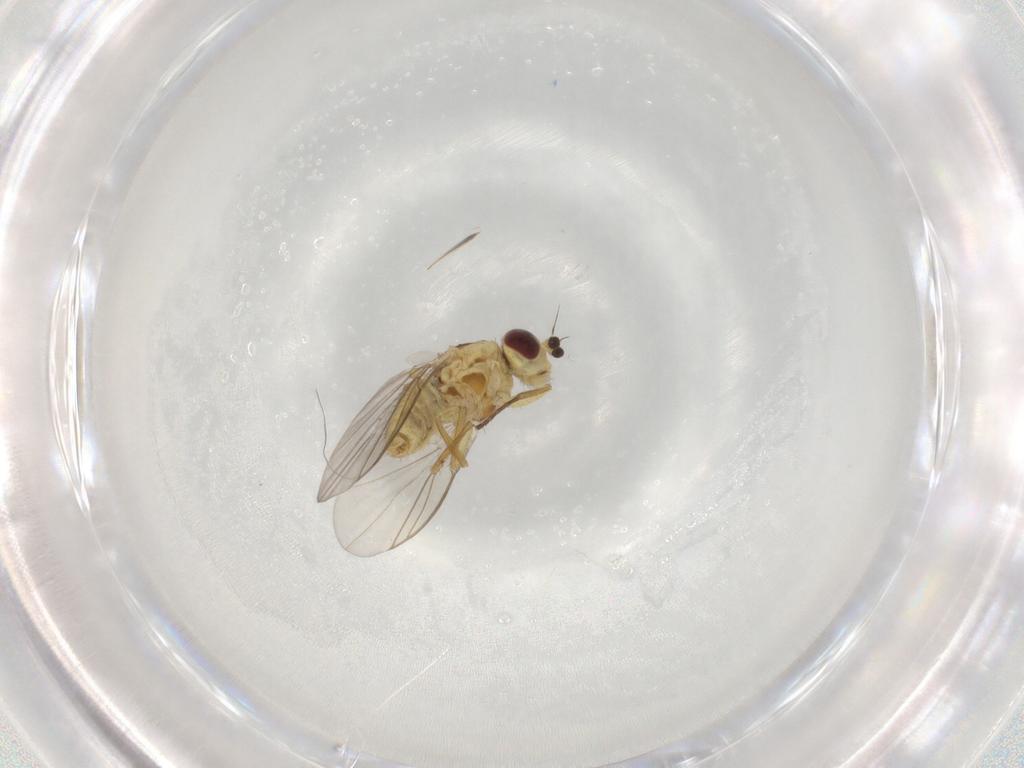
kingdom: Animalia
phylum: Arthropoda
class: Insecta
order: Diptera
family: Agromyzidae
